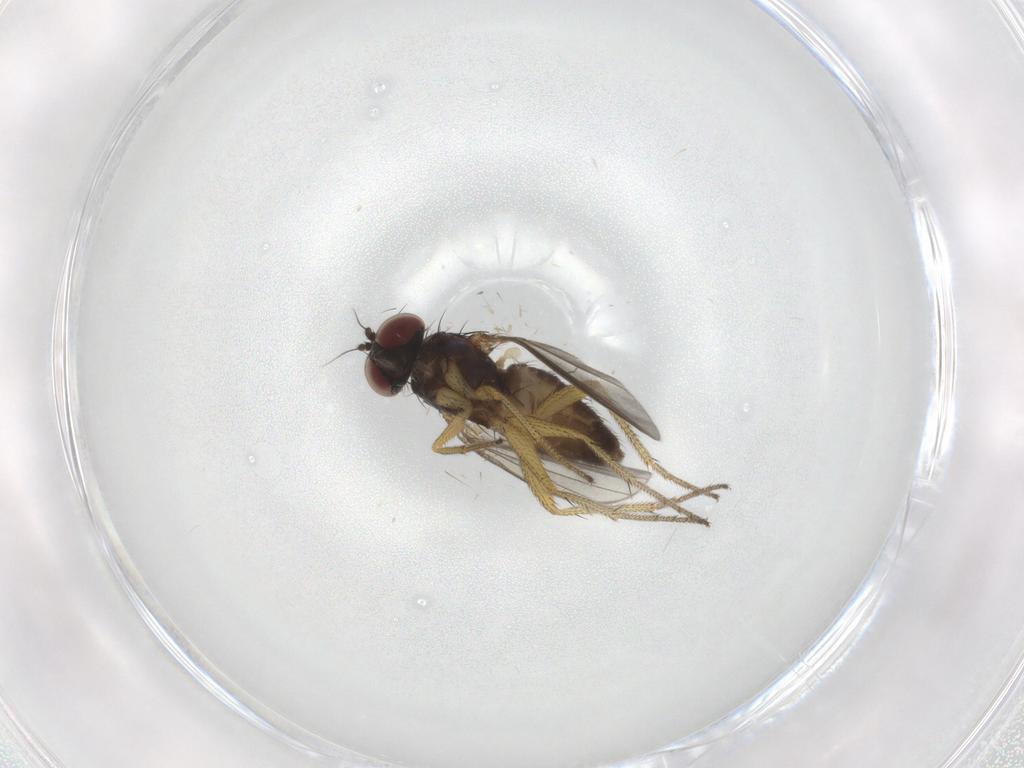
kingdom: Animalia
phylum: Arthropoda
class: Insecta
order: Diptera
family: Dolichopodidae
